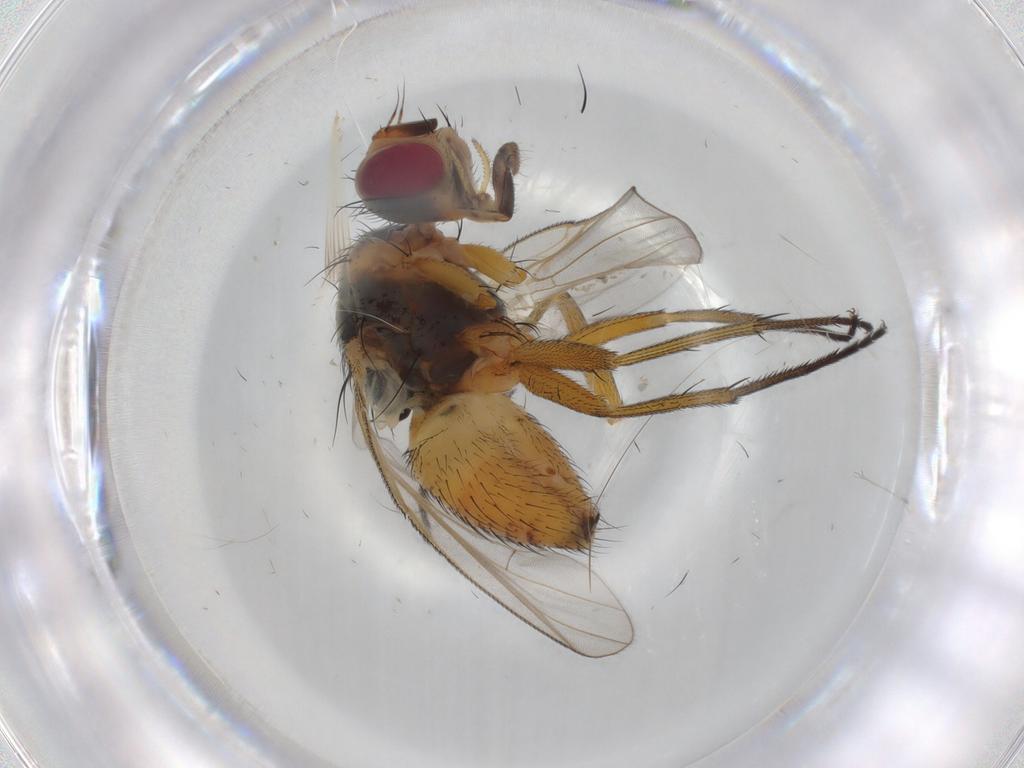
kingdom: Animalia
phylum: Arthropoda
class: Insecta
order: Diptera
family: Muscidae
